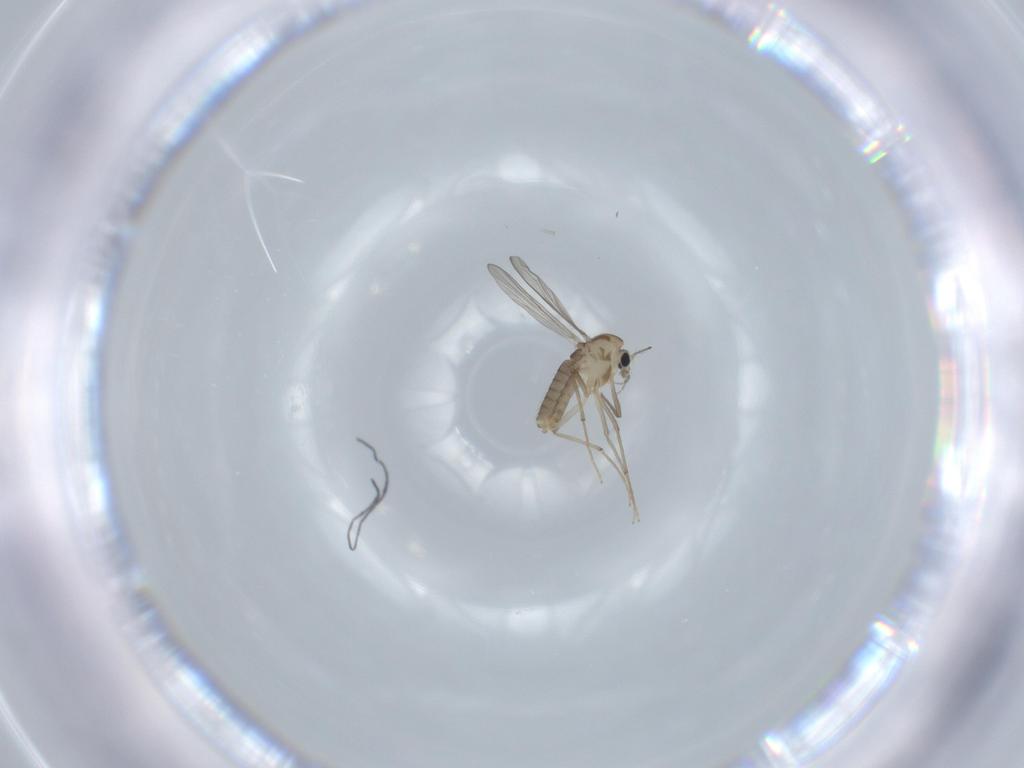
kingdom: Animalia
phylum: Arthropoda
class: Insecta
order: Diptera
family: Chironomidae
